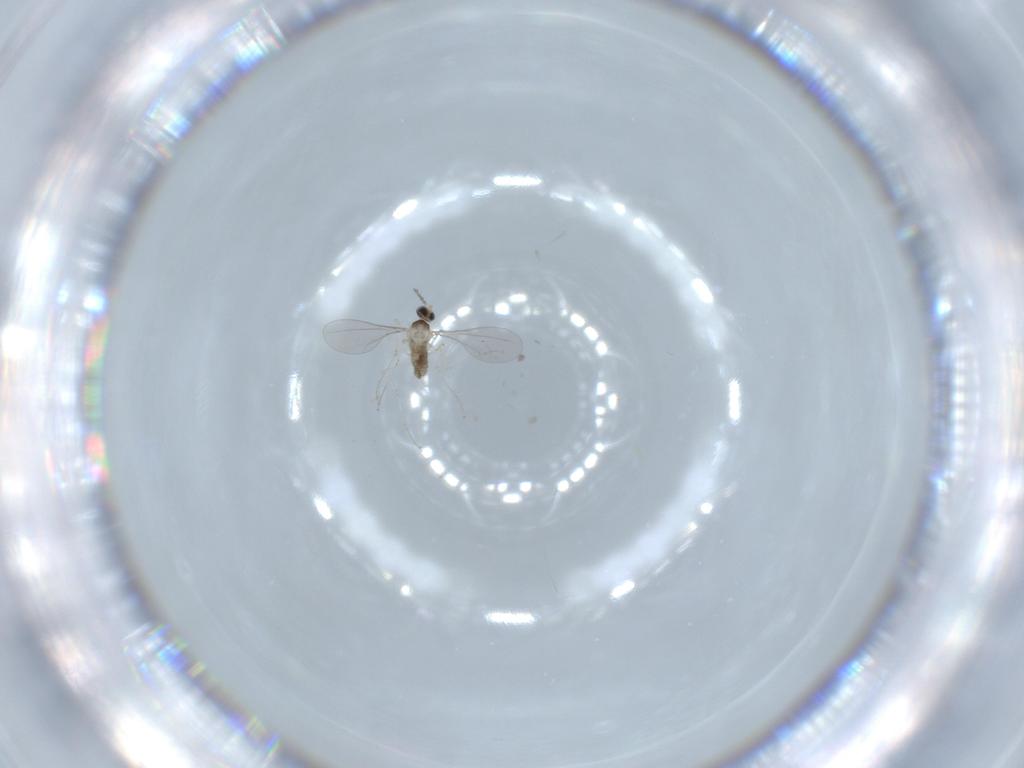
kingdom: Animalia
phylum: Arthropoda
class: Insecta
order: Diptera
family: Cecidomyiidae
